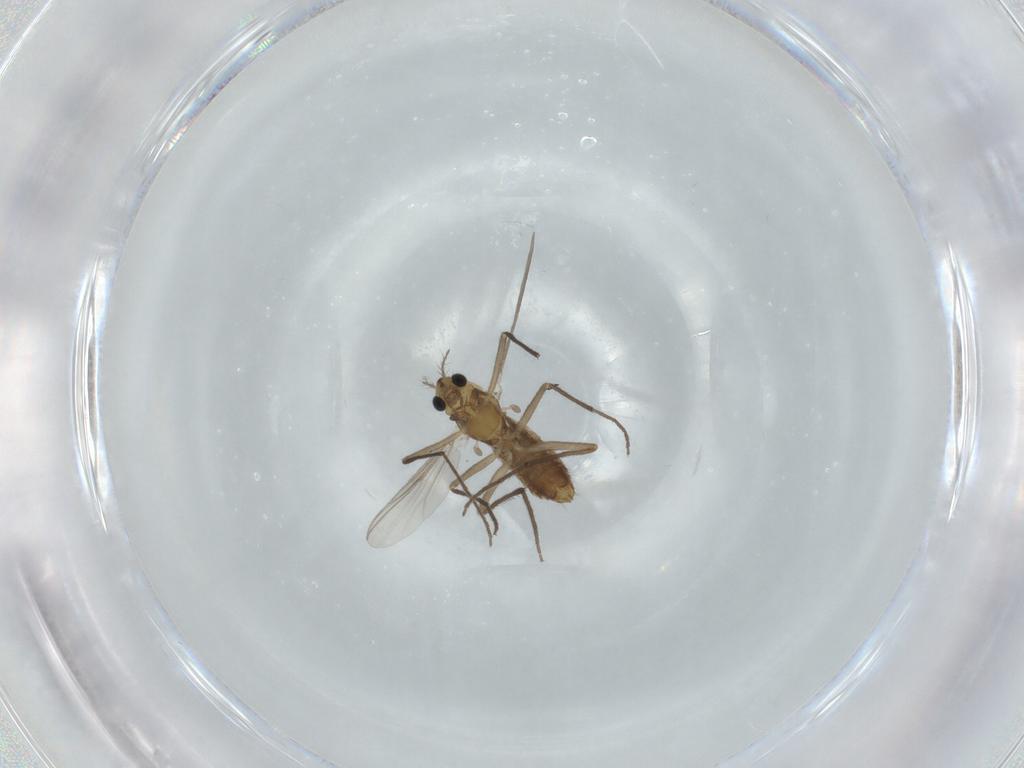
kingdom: Animalia
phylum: Arthropoda
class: Insecta
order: Diptera
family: Chironomidae
